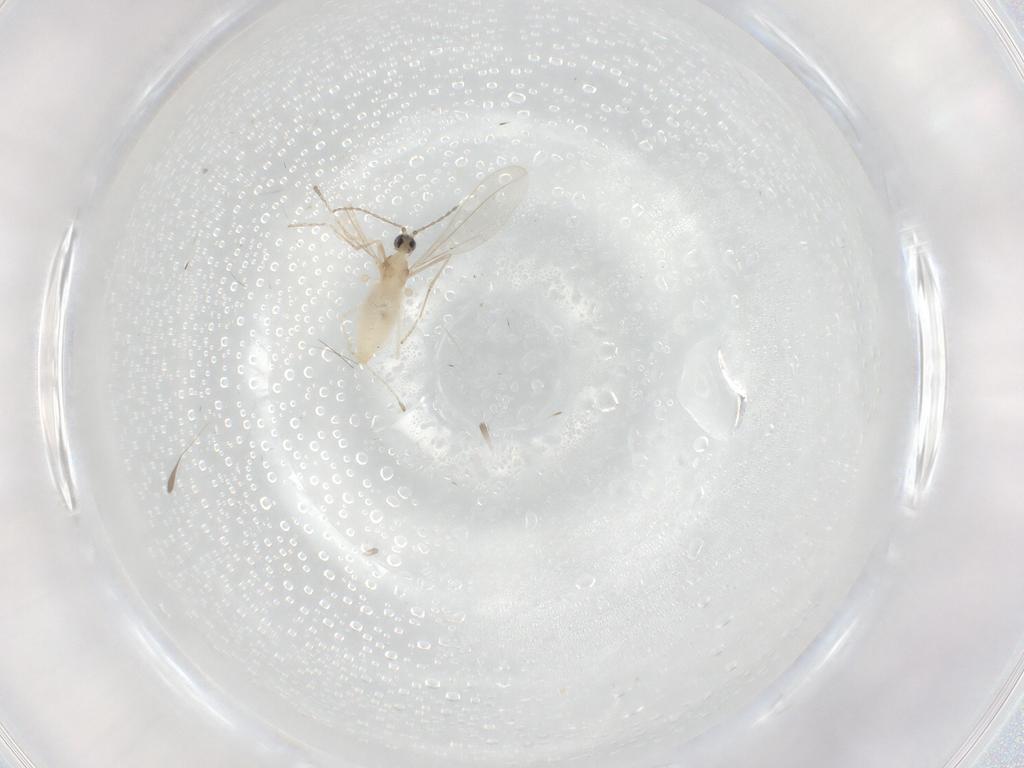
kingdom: Animalia
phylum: Arthropoda
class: Insecta
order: Diptera
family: Cecidomyiidae
